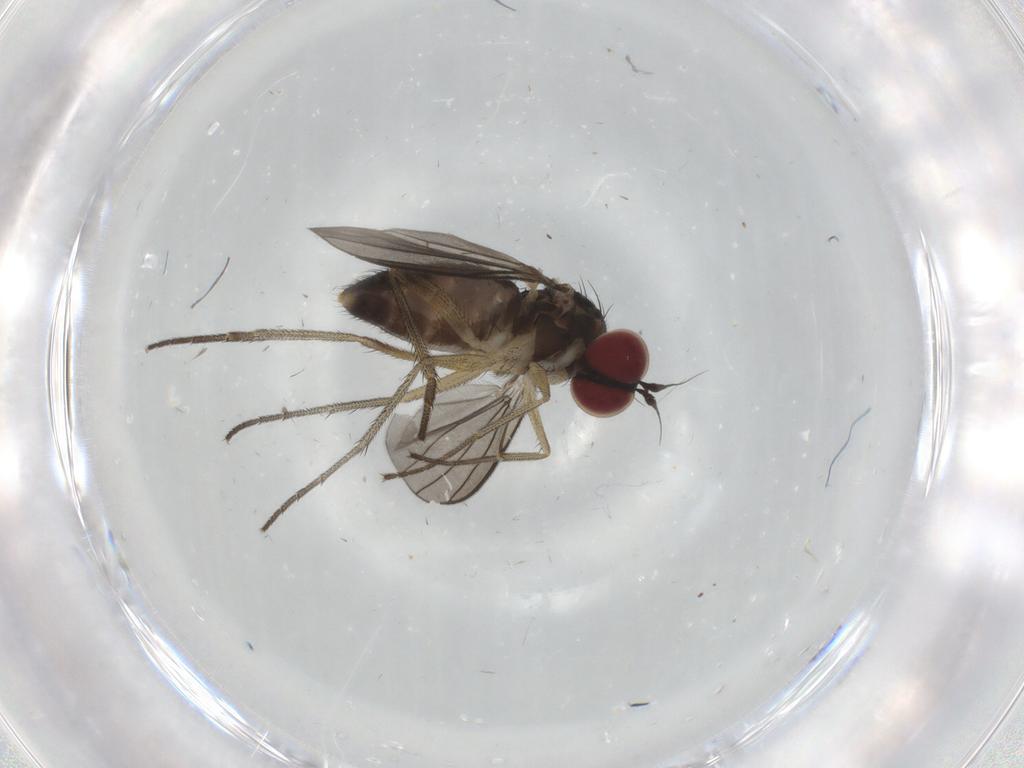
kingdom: Animalia
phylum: Arthropoda
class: Insecta
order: Diptera
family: Dolichopodidae
